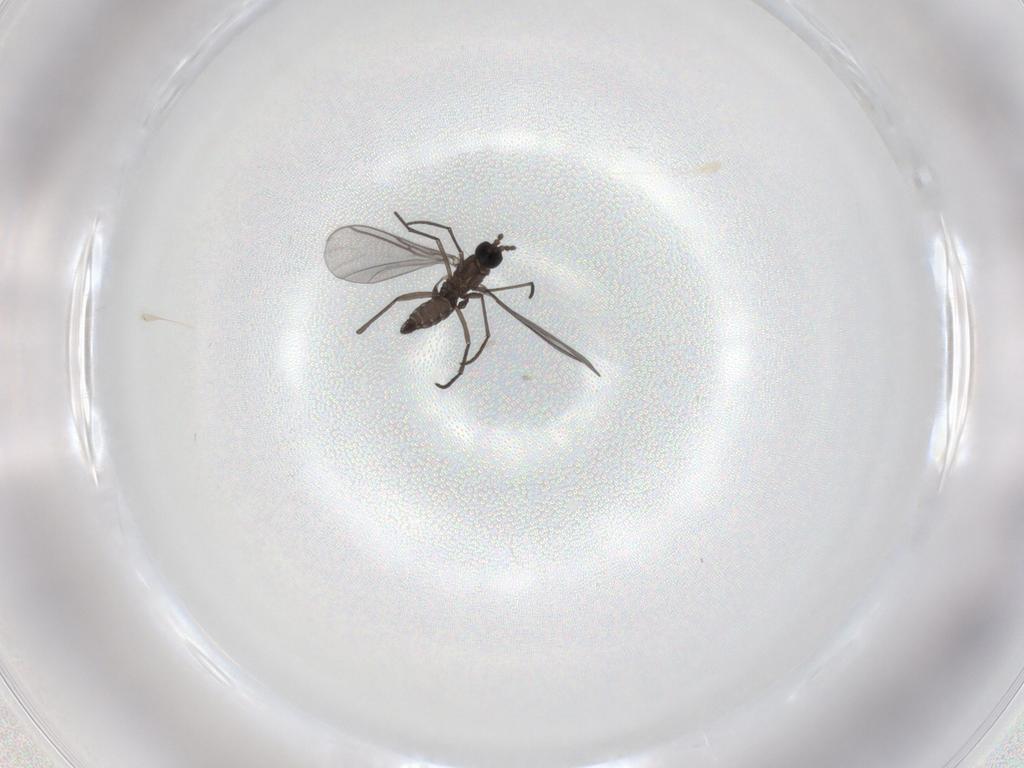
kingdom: Animalia
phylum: Arthropoda
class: Insecta
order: Diptera
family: Sciaridae
